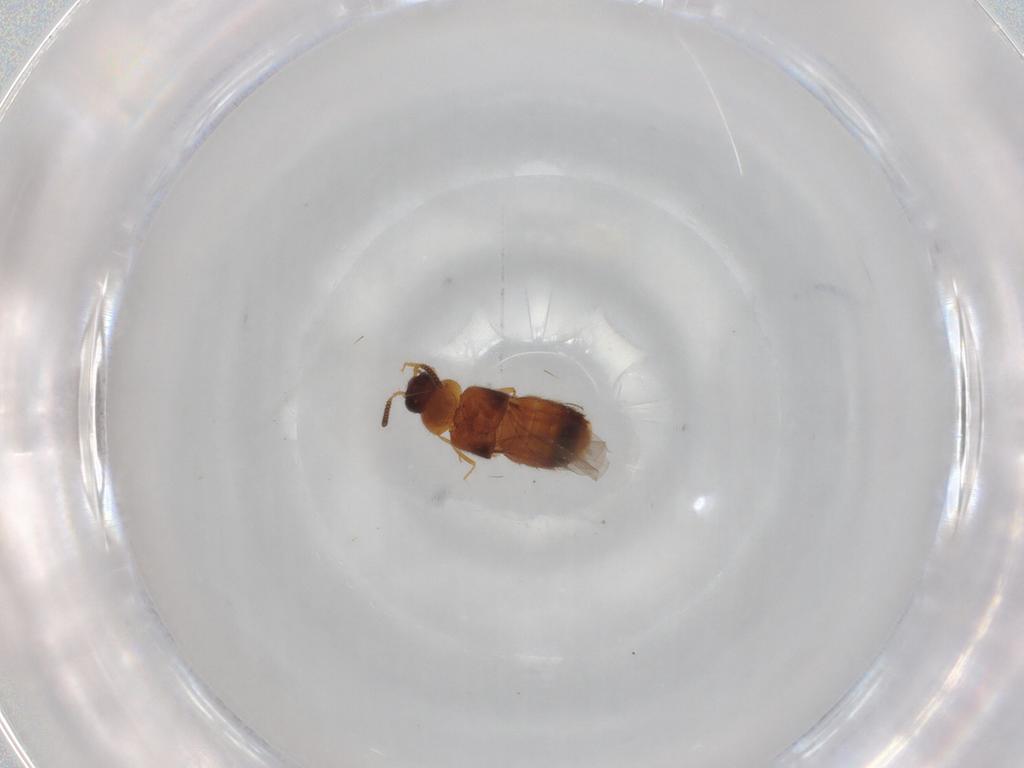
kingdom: Animalia
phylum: Arthropoda
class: Insecta
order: Coleoptera
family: Staphylinidae
